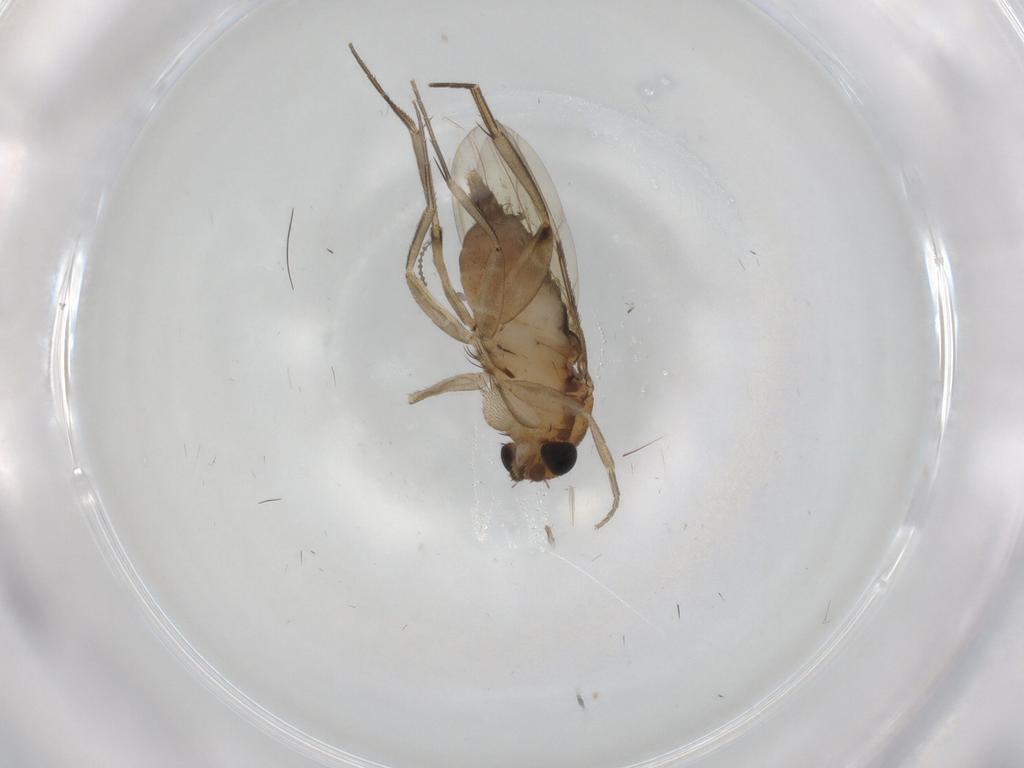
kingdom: Animalia
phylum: Arthropoda
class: Insecta
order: Diptera
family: Phoridae
